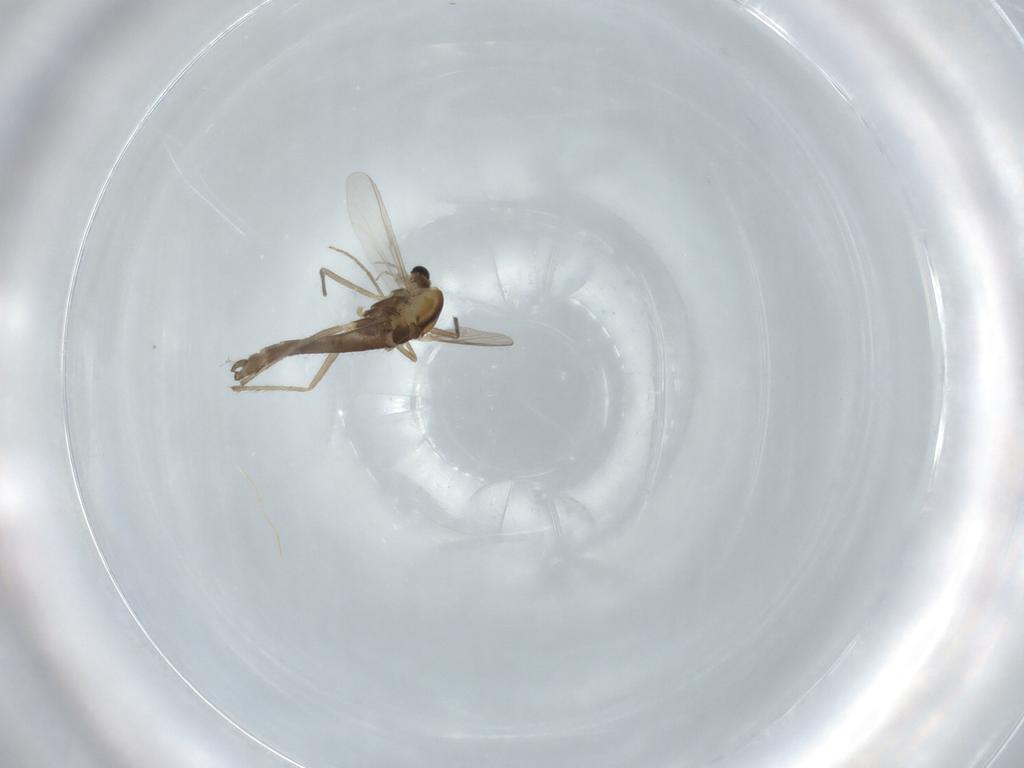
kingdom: Animalia
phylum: Arthropoda
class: Insecta
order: Diptera
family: Chironomidae
